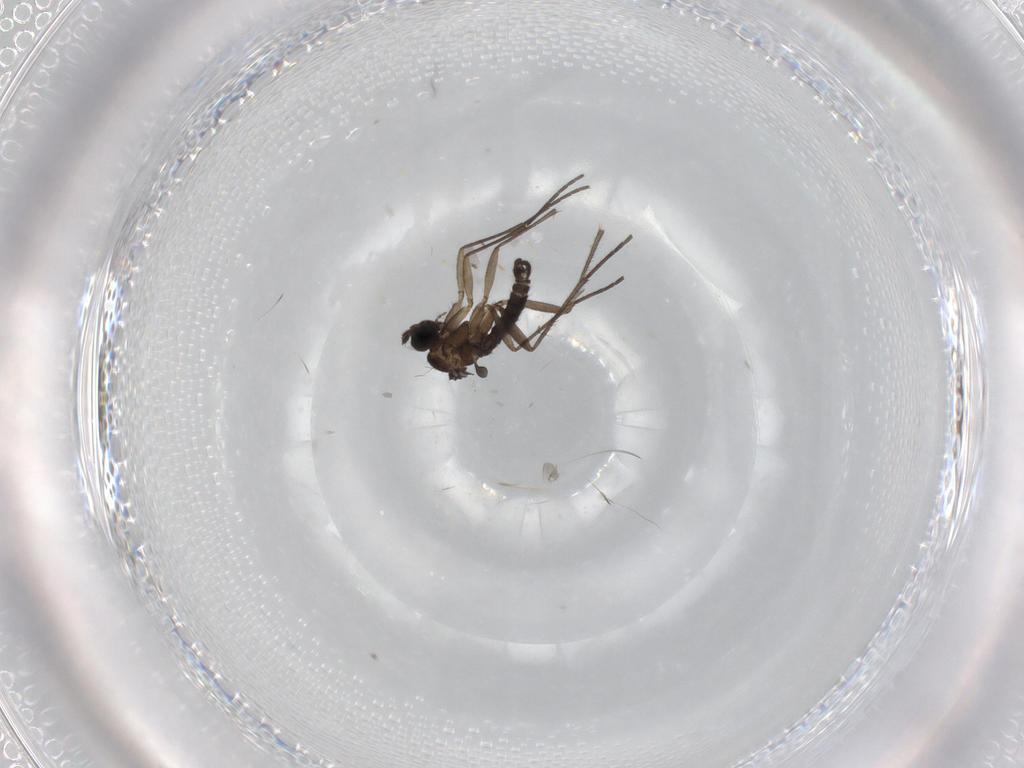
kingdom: Animalia
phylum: Arthropoda
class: Insecta
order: Diptera
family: Sciaridae
